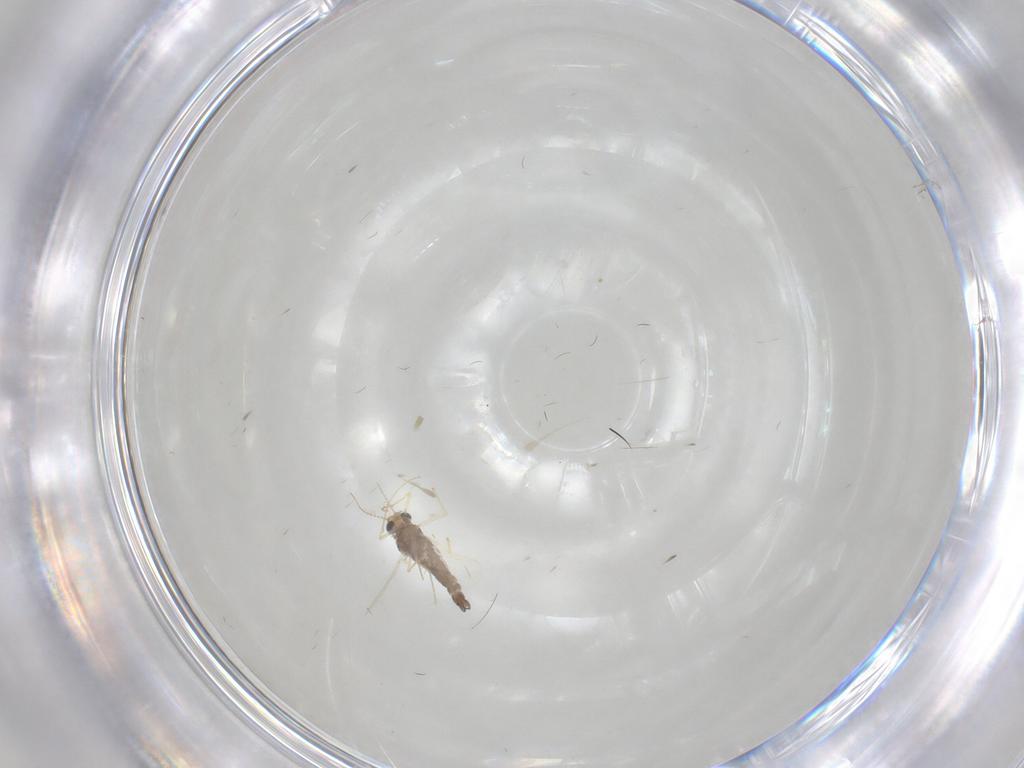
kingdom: Animalia
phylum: Arthropoda
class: Insecta
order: Diptera
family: Chironomidae
